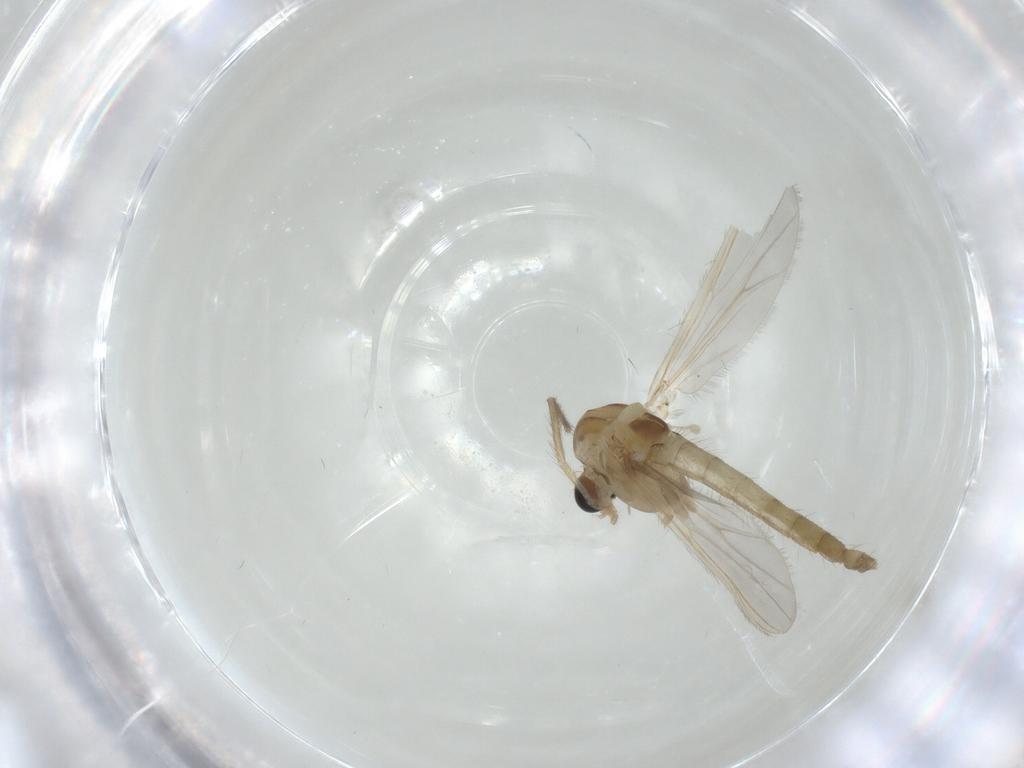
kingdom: Animalia
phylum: Arthropoda
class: Insecta
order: Diptera
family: Chironomidae
